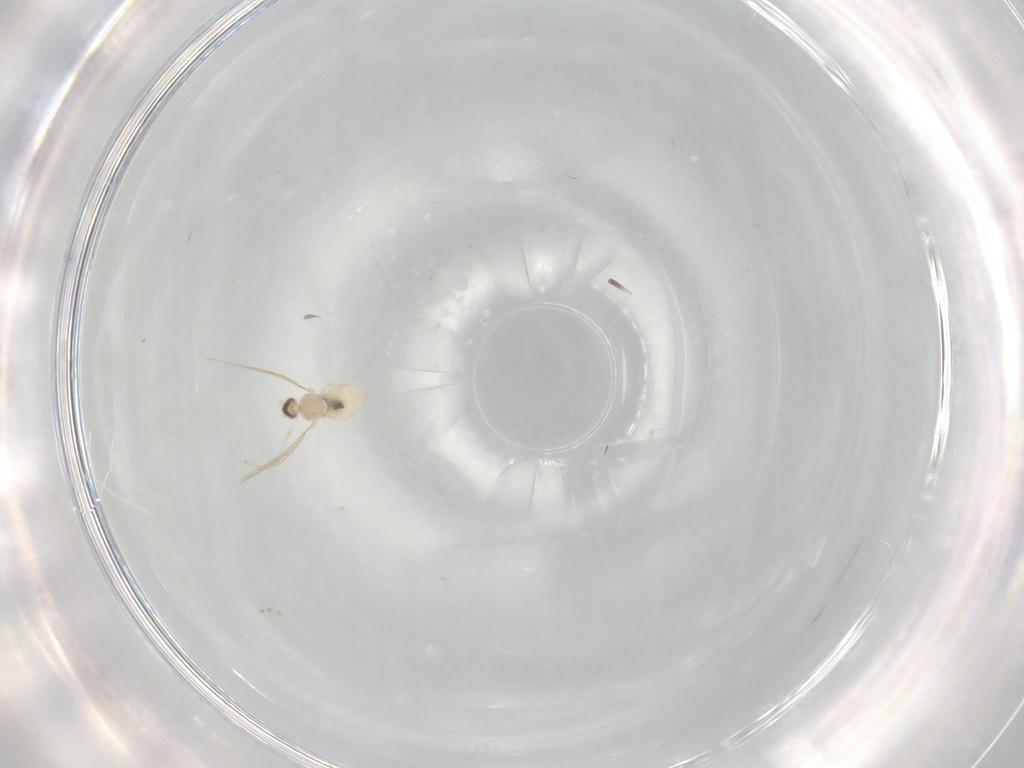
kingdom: Animalia
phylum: Arthropoda
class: Insecta
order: Diptera
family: Cecidomyiidae
